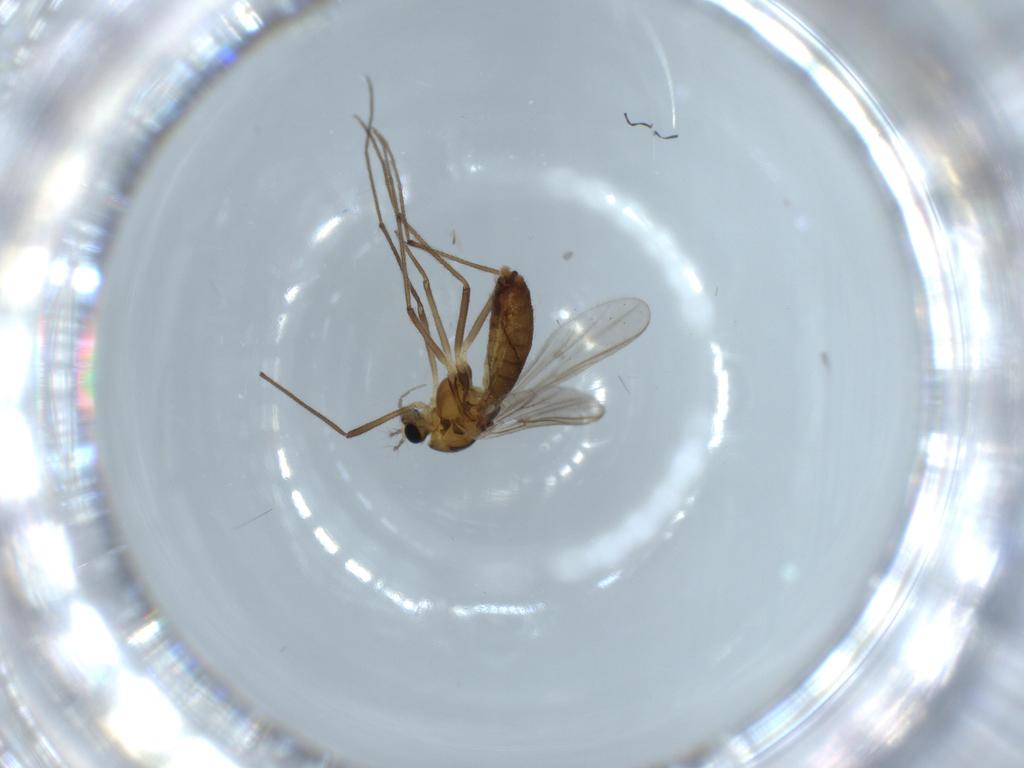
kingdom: Animalia
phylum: Arthropoda
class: Insecta
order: Diptera
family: Chironomidae
